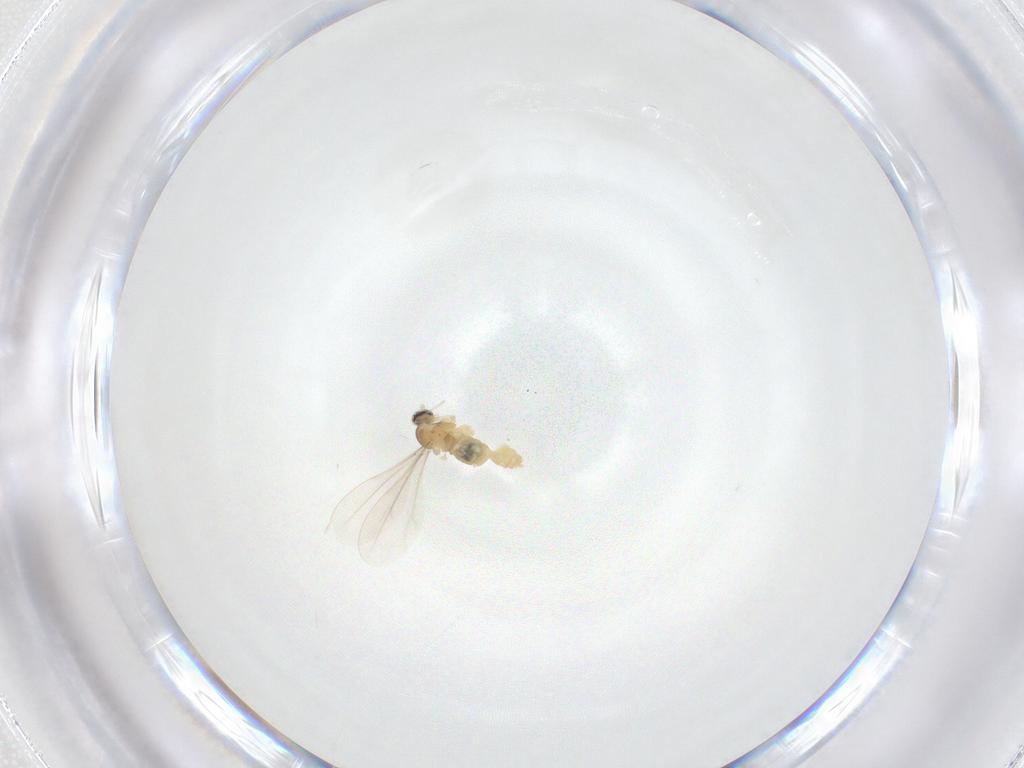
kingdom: Animalia
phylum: Arthropoda
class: Insecta
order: Diptera
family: Cecidomyiidae
